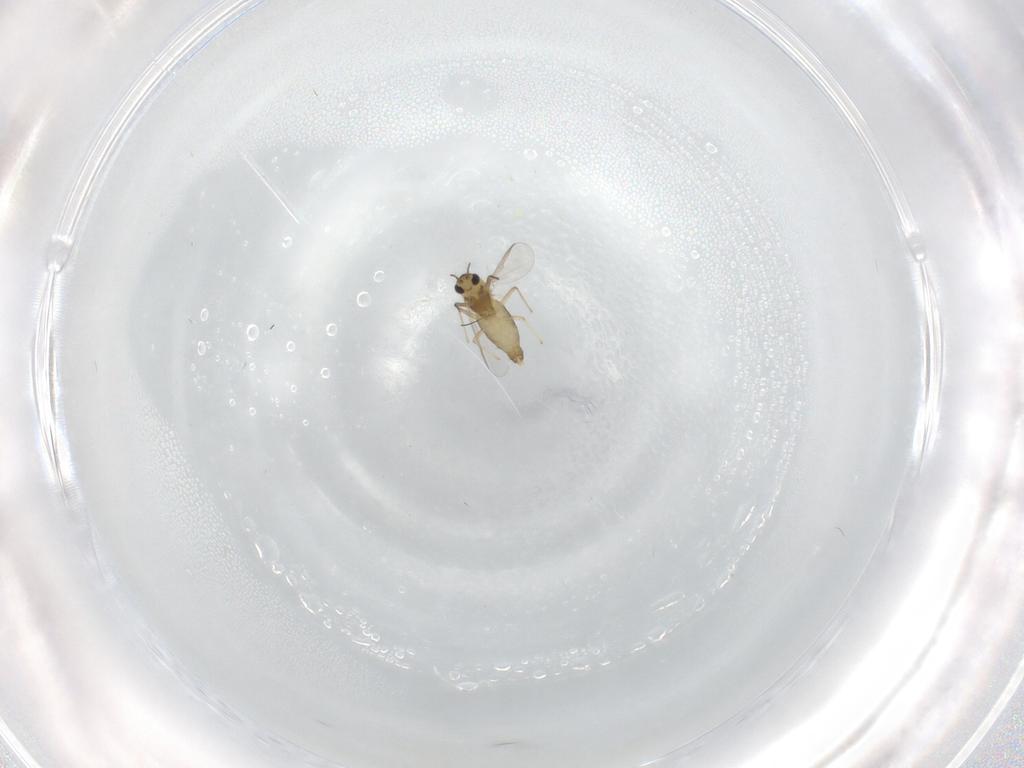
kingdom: Animalia
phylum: Arthropoda
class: Insecta
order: Diptera
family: Chironomidae
